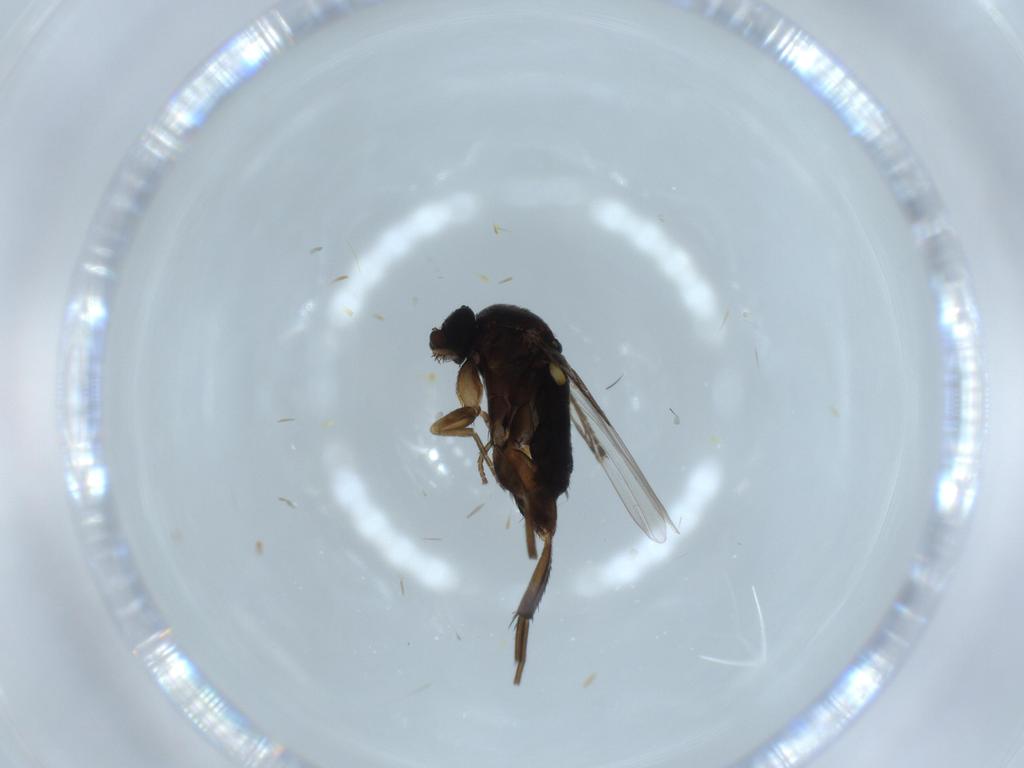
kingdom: Animalia
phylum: Arthropoda
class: Insecta
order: Diptera
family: Phoridae
